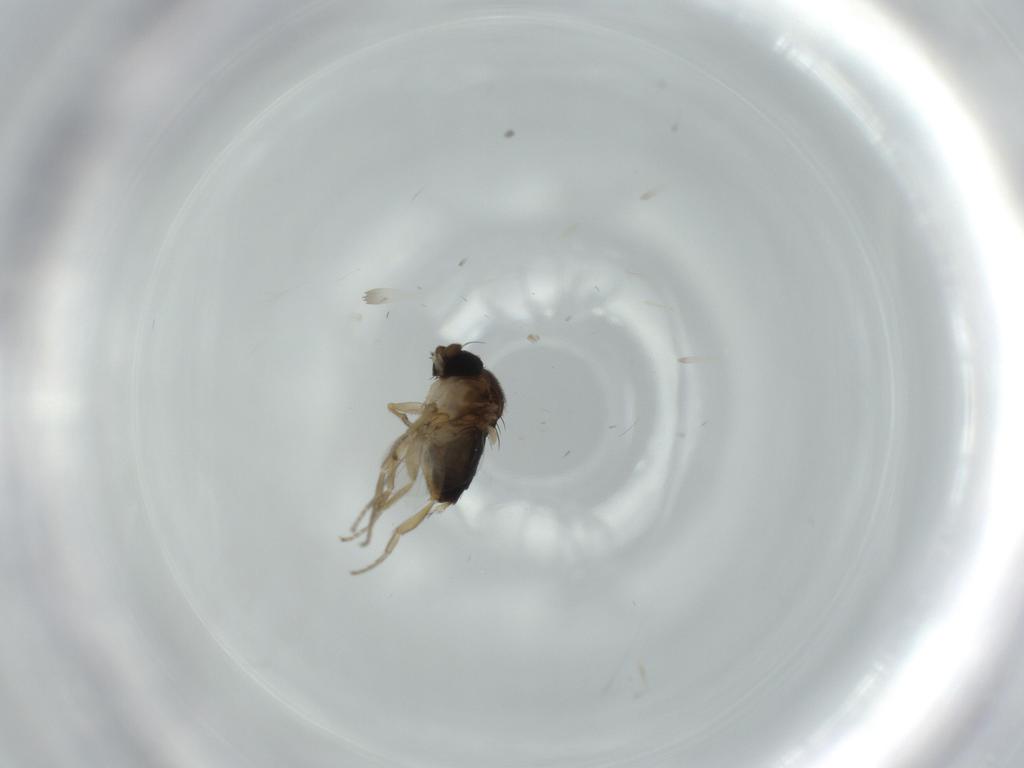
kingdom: Animalia
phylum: Arthropoda
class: Insecta
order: Diptera
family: Phoridae
